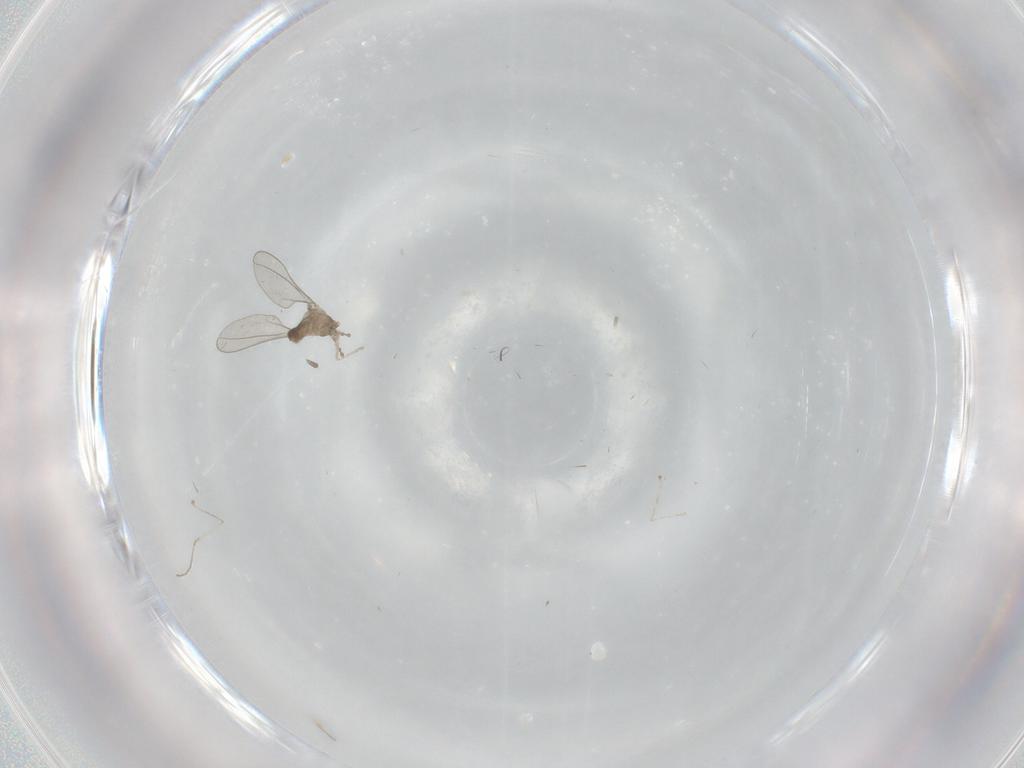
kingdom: Animalia
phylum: Arthropoda
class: Insecta
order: Diptera
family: Cecidomyiidae
